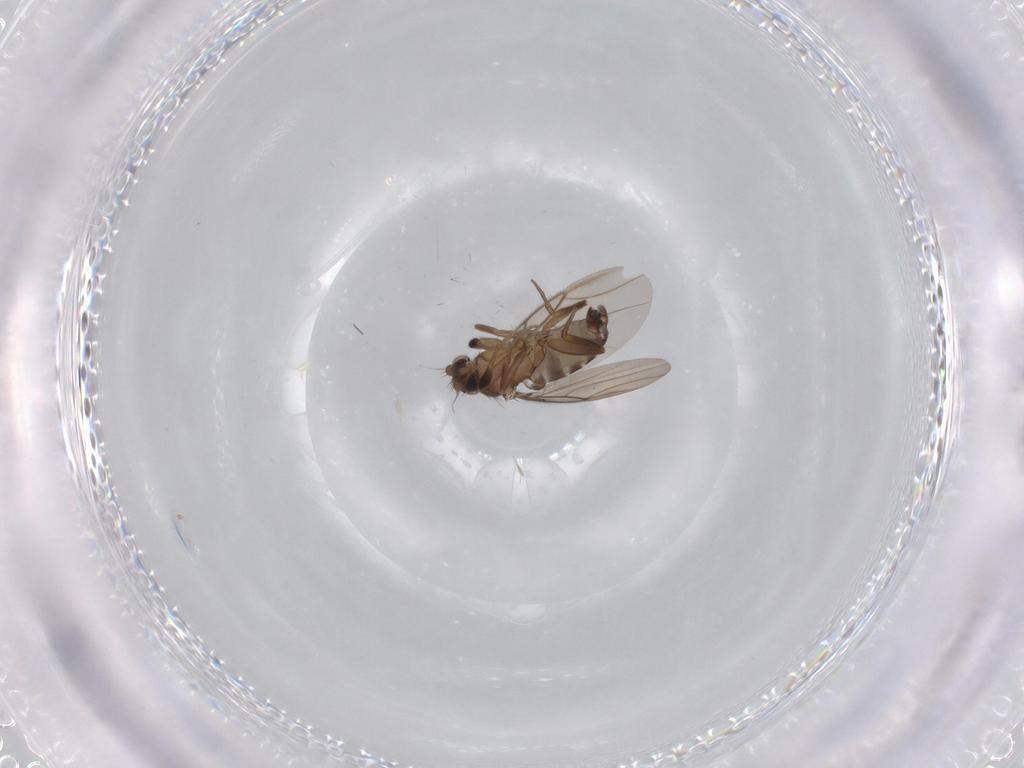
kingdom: Animalia
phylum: Arthropoda
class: Insecta
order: Diptera
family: Phoridae
